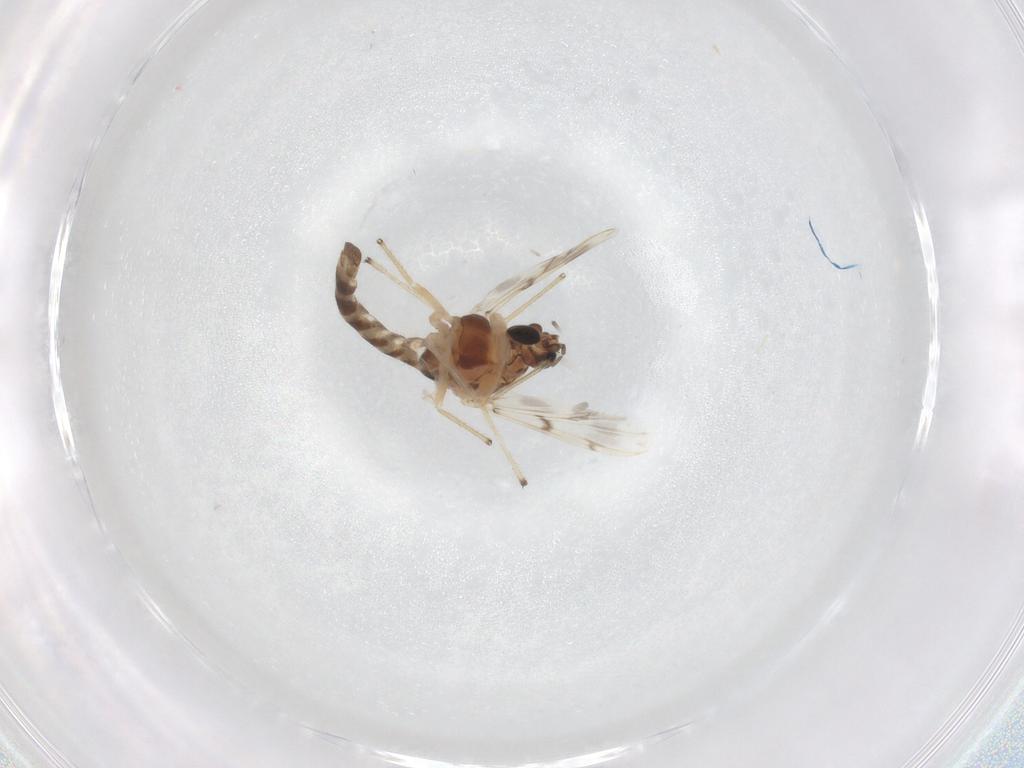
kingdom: Animalia
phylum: Arthropoda
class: Insecta
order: Diptera
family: Chironomidae
